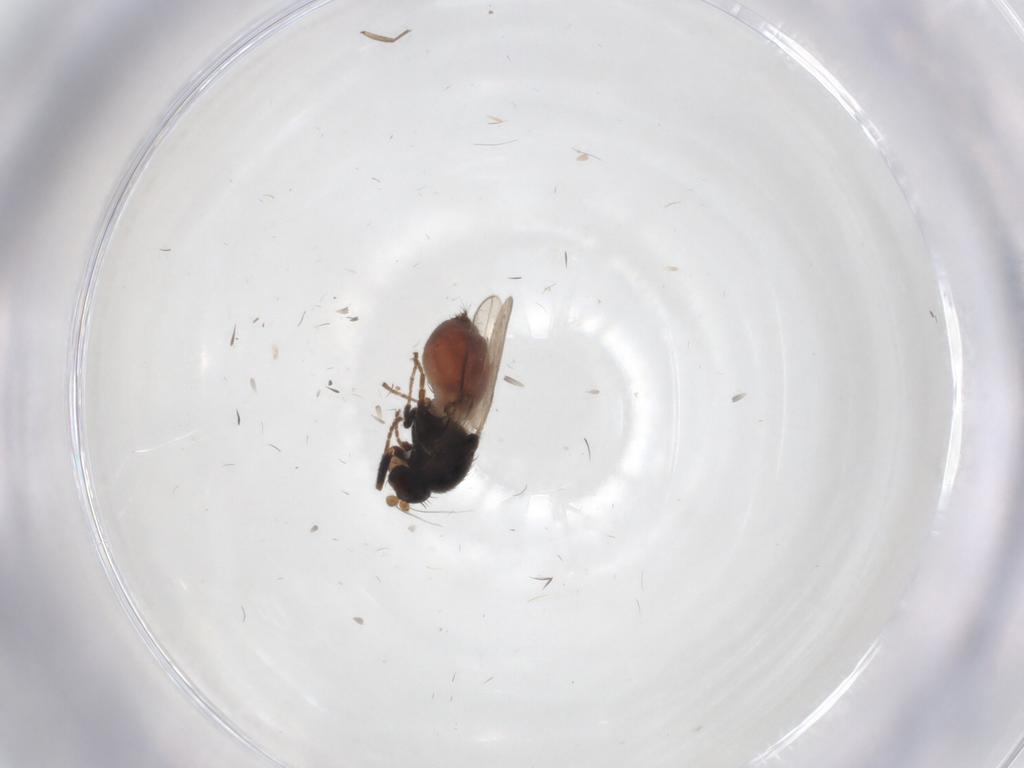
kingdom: Animalia
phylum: Arthropoda
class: Insecta
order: Diptera
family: Sphaeroceridae
